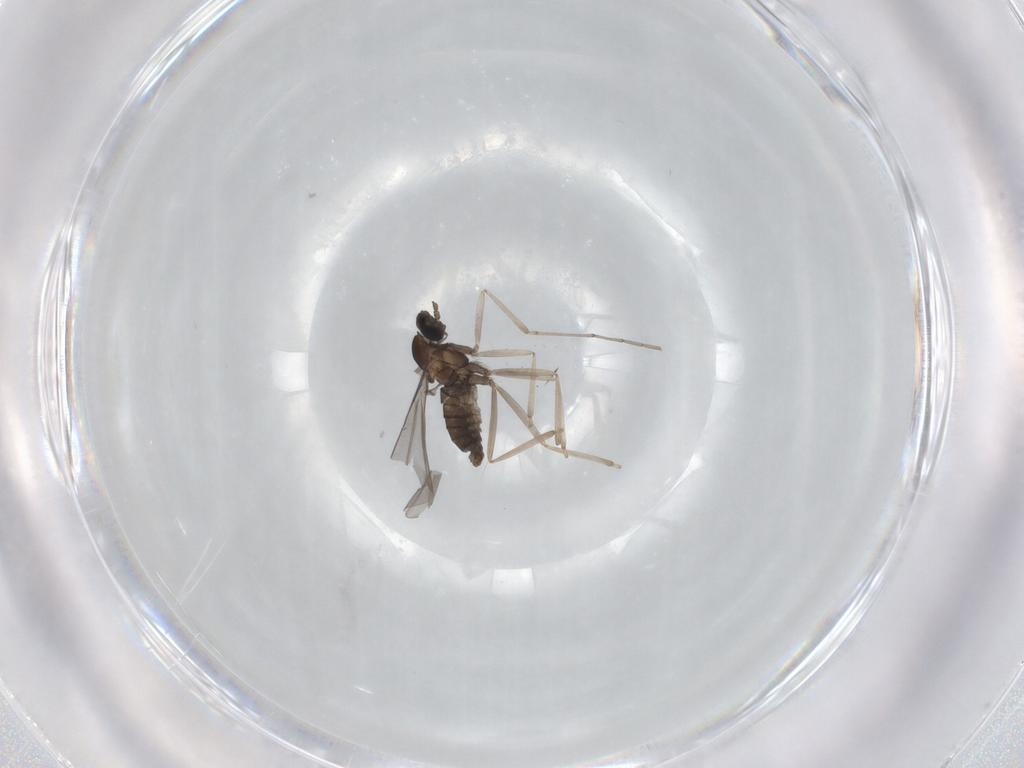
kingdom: Animalia
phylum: Arthropoda
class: Insecta
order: Diptera
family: Cecidomyiidae
